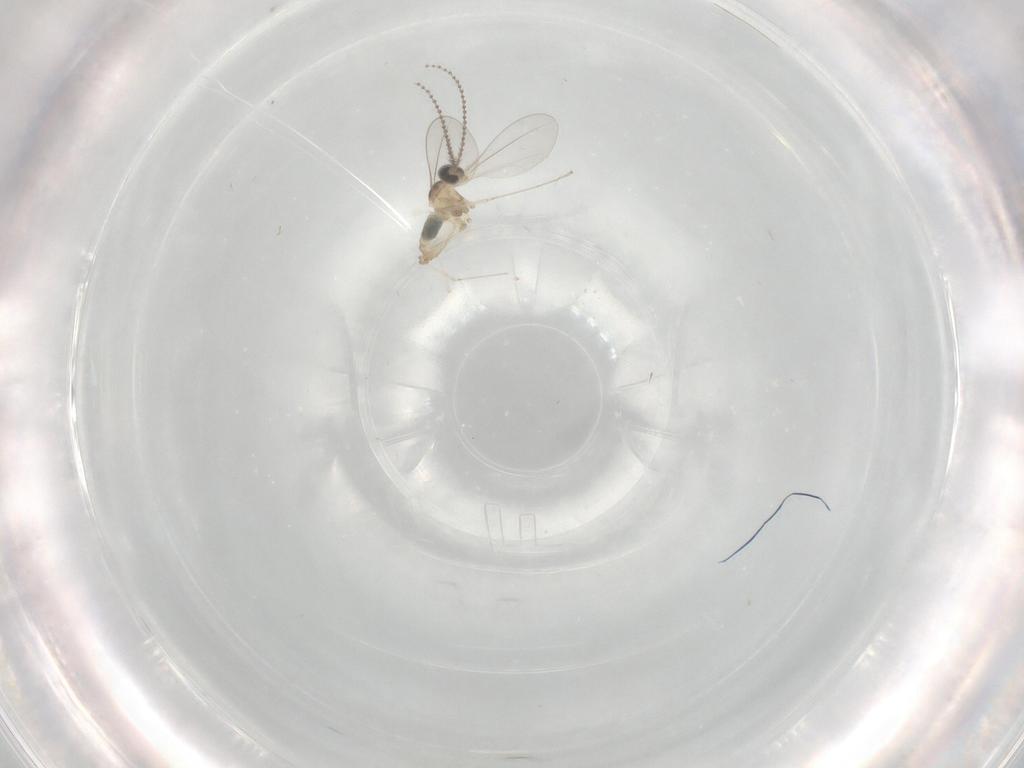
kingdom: Animalia
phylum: Arthropoda
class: Insecta
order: Diptera
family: Cecidomyiidae
